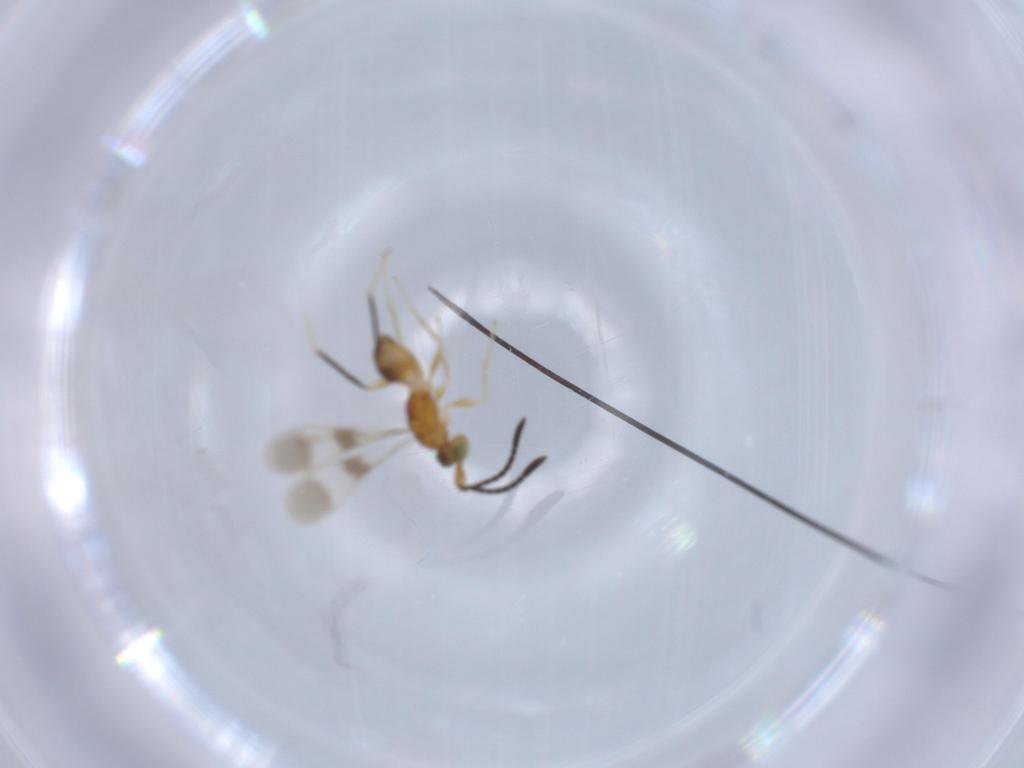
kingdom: Animalia
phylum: Arthropoda
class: Insecta
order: Hymenoptera
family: Mymaridae
